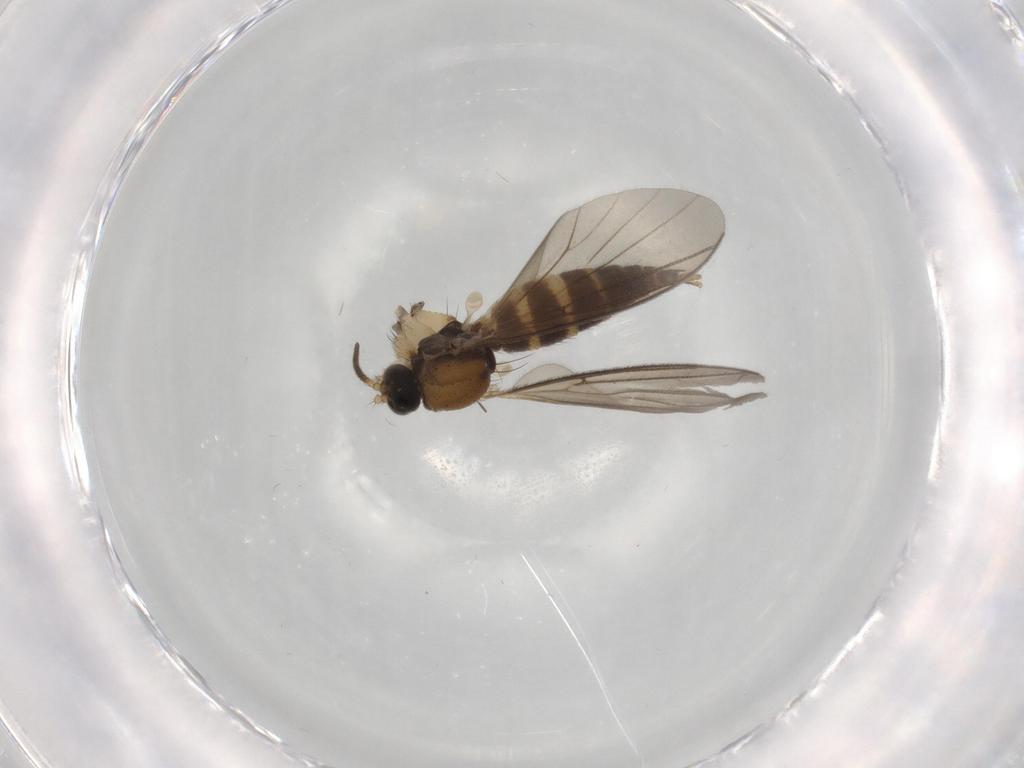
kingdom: Animalia
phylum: Arthropoda
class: Insecta
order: Diptera
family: Mycetophilidae
